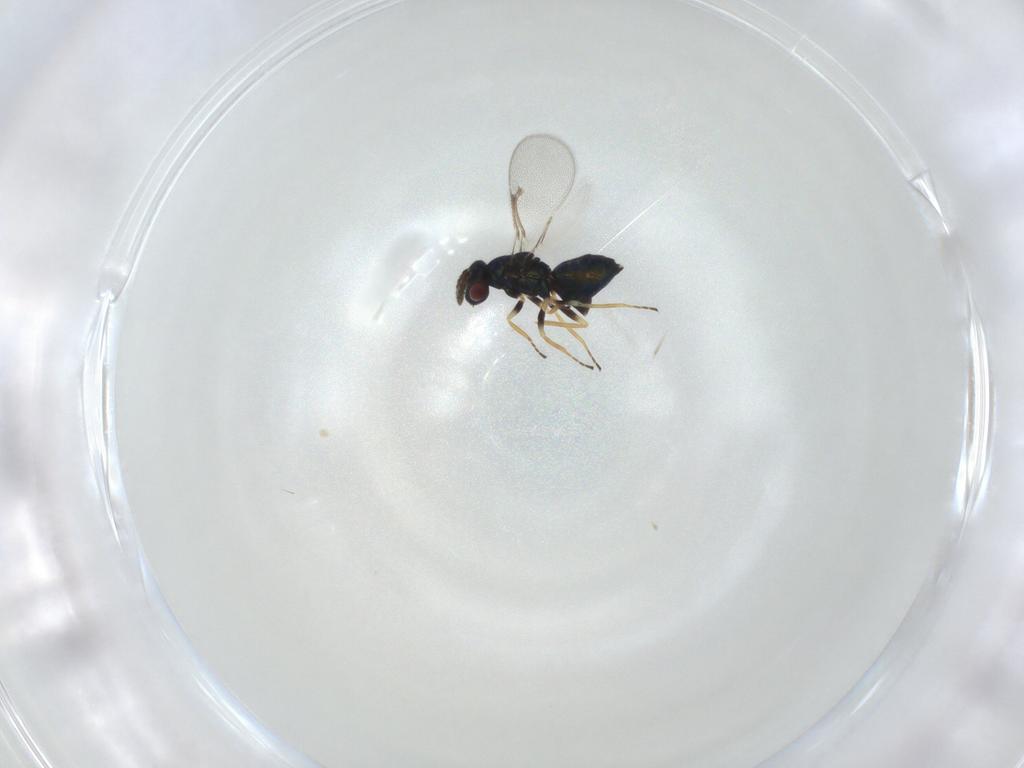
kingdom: Animalia
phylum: Arthropoda
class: Insecta
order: Hymenoptera
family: Eulophidae
